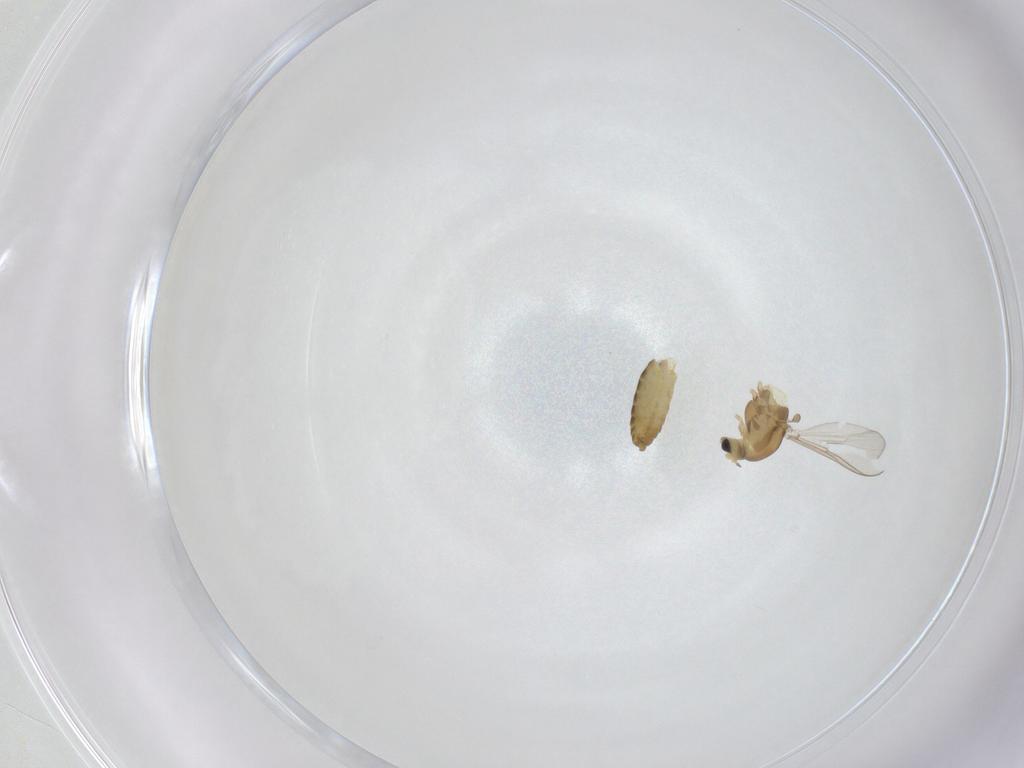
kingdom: Animalia
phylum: Arthropoda
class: Insecta
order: Diptera
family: Chironomidae
